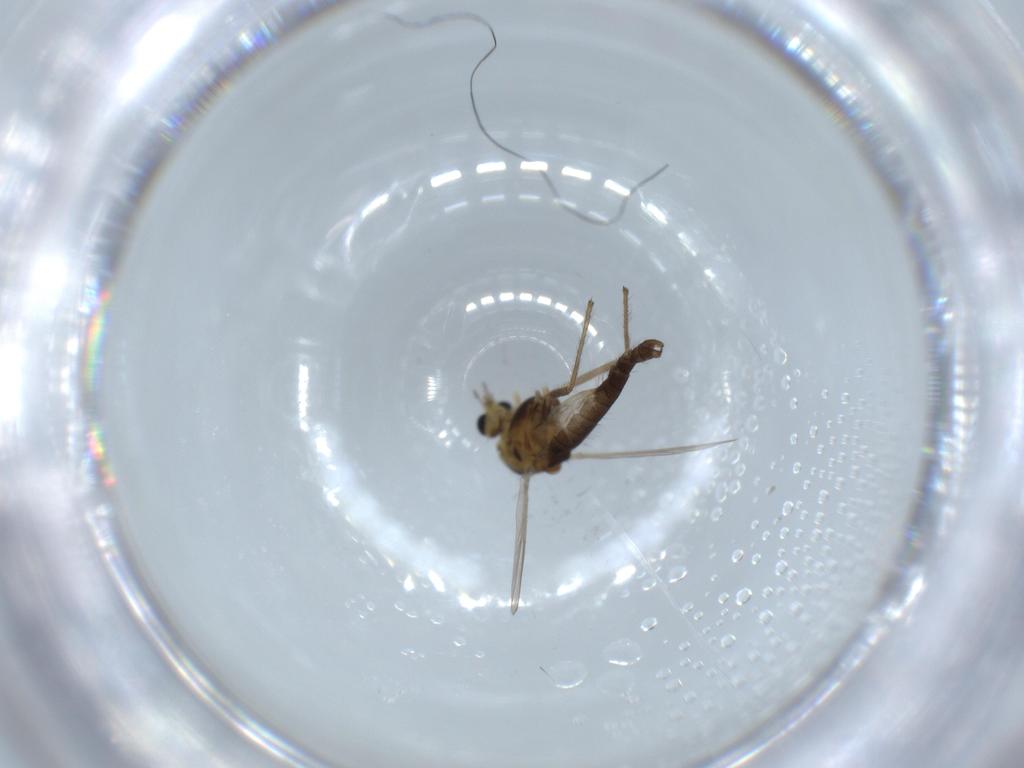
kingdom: Animalia
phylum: Arthropoda
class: Insecta
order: Diptera
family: Chironomidae
